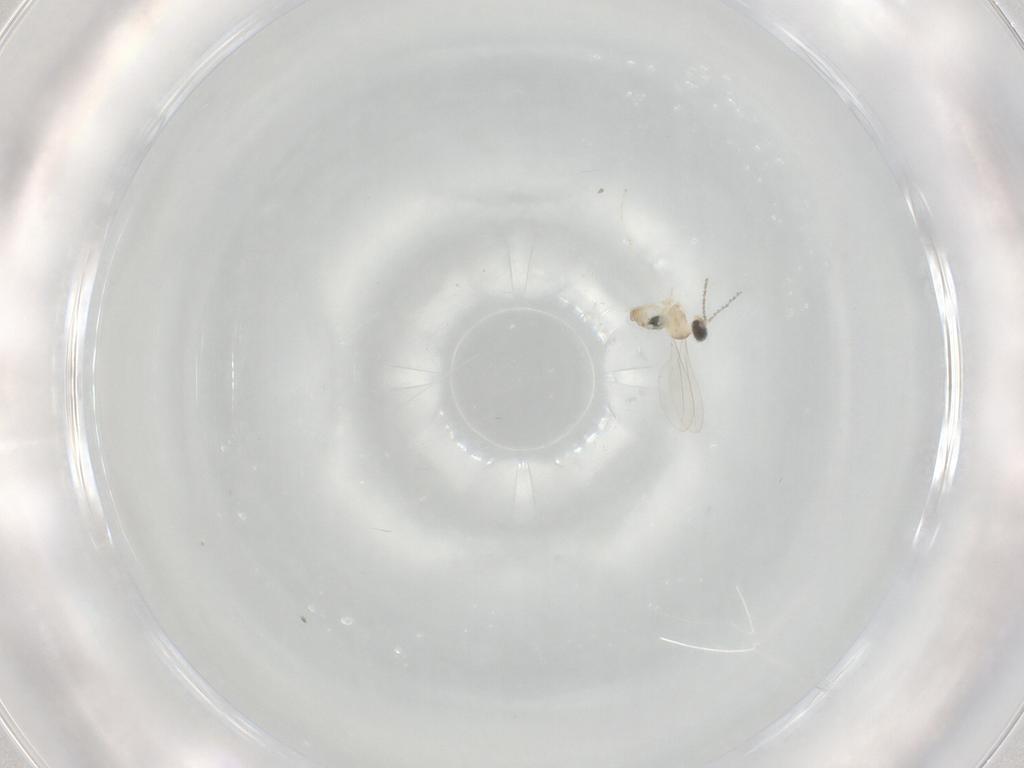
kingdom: Animalia
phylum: Arthropoda
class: Insecta
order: Diptera
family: Cecidomyiidae
